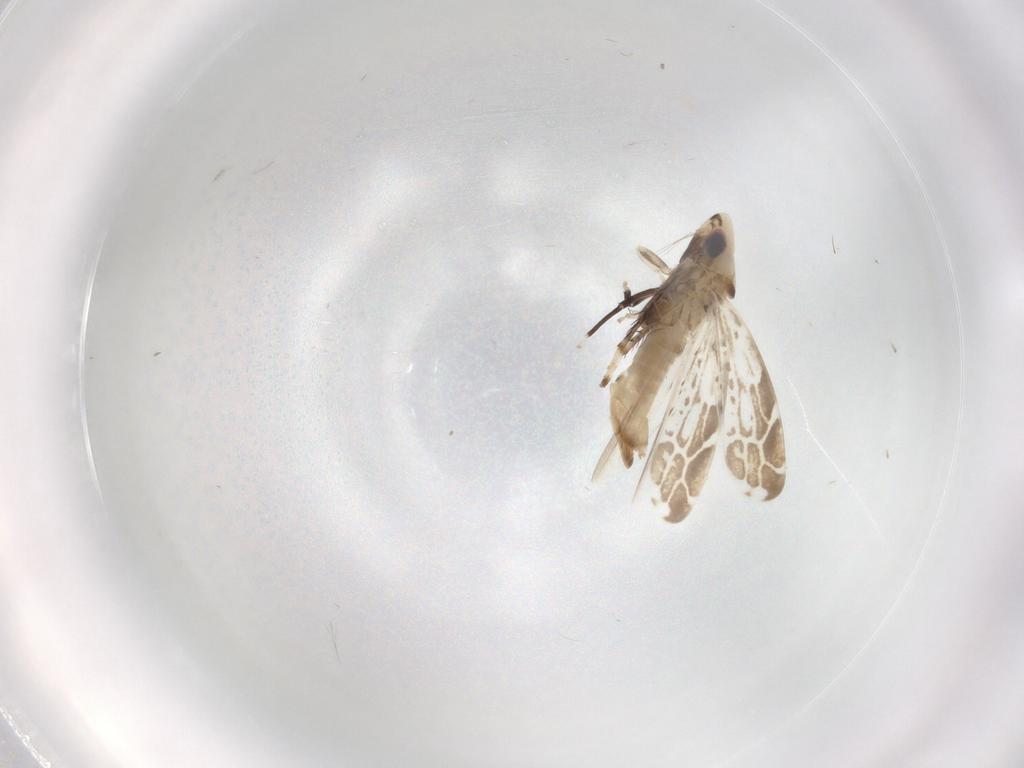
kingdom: Animalia
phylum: Arthropoda
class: Insecta
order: Hemiptera
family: Cicadellidae
